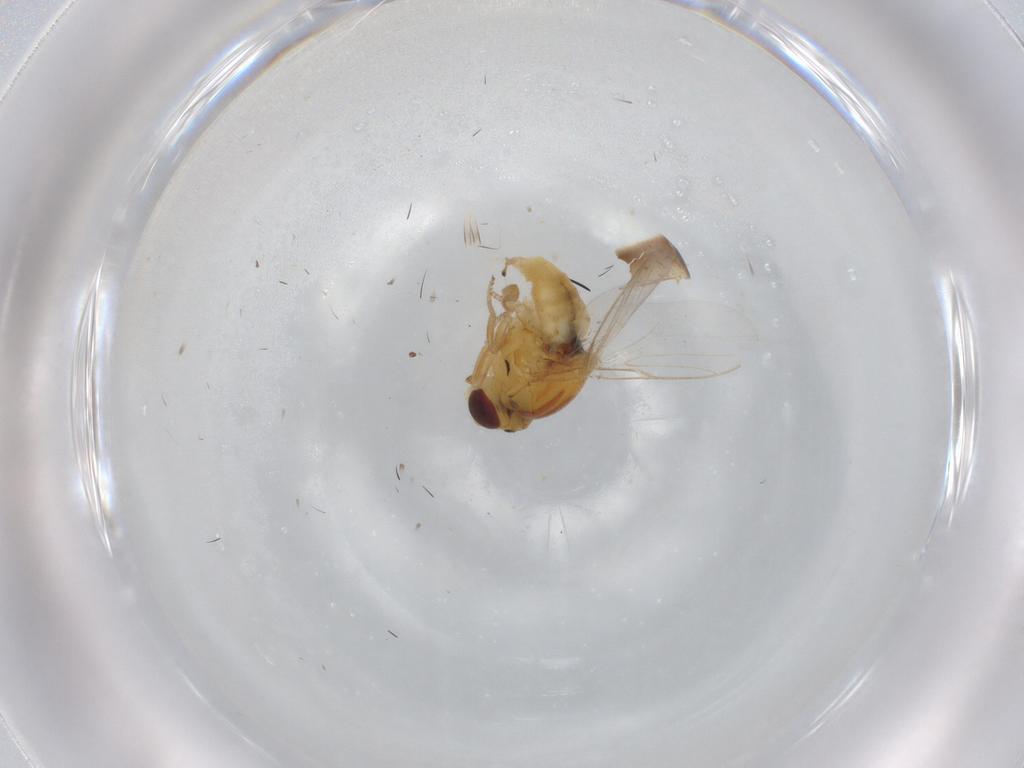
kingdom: Animalia
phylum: Arthropoda
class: Insecta
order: Diptera
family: Chloropidae
